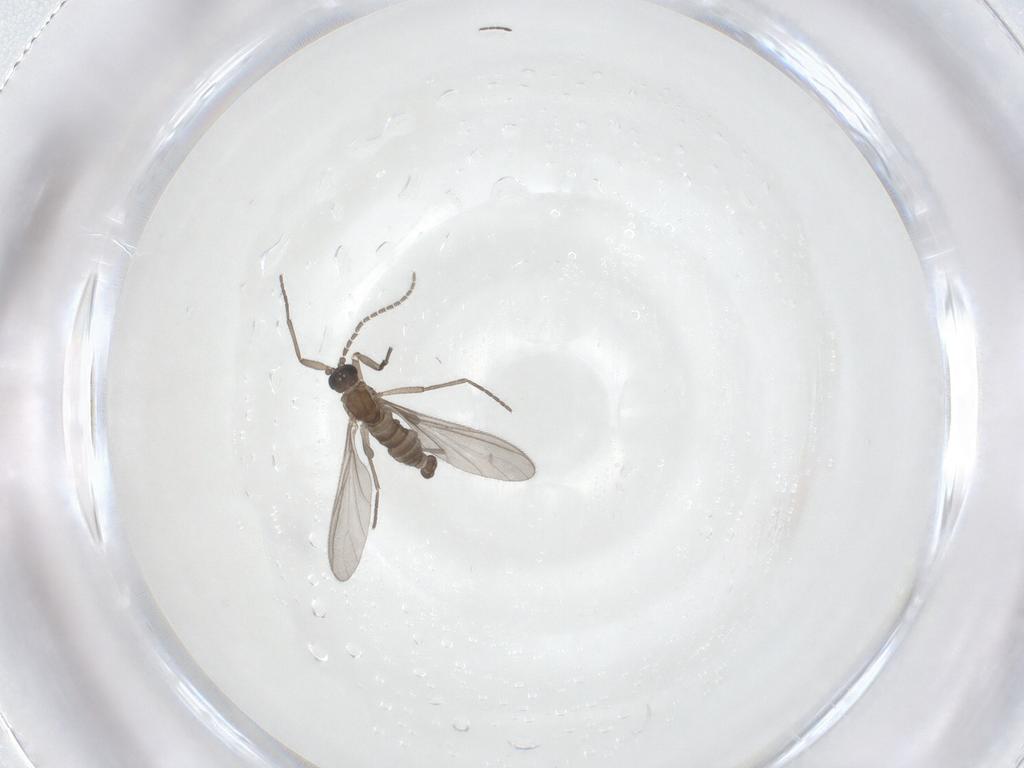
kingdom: Animalia
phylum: Arthropoda
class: Insecta
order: Diptera
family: Sciaridae
